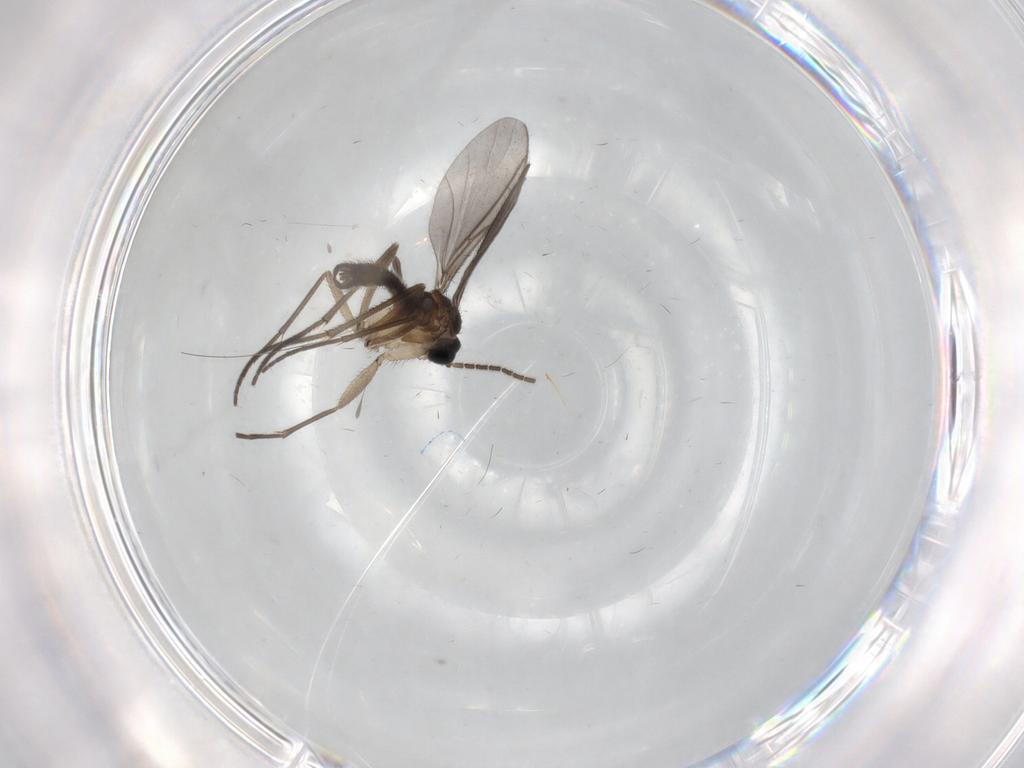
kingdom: Animalia
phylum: Arthropoda
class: Insecta
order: Diptera
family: Sciaridae
